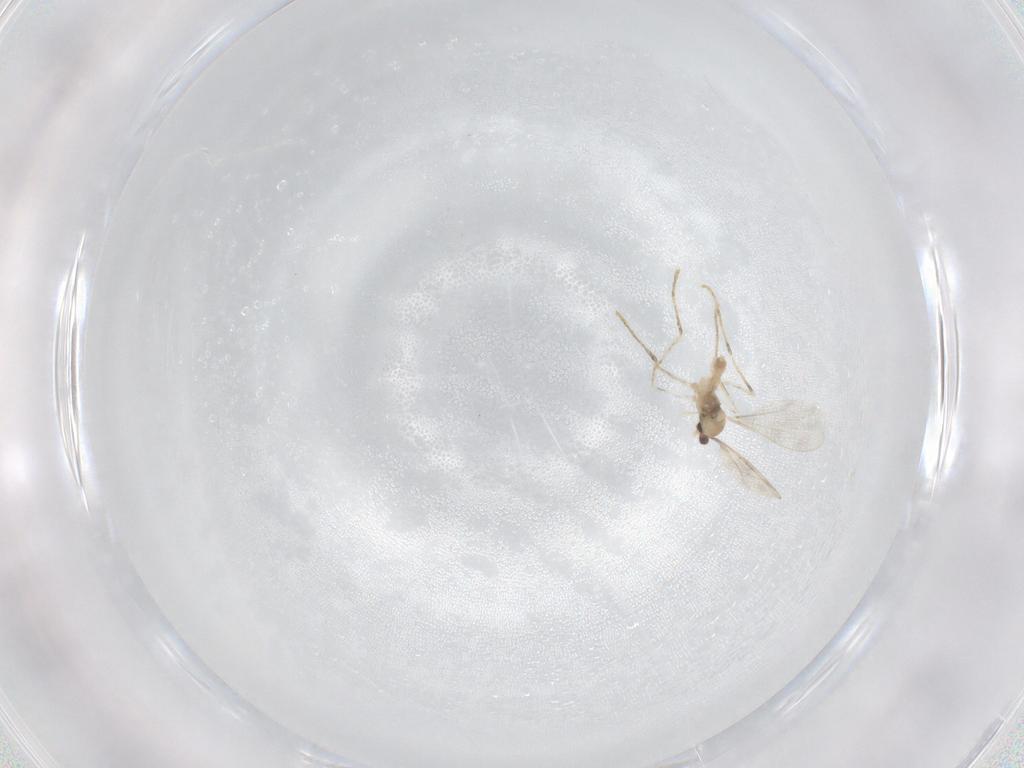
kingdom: Animalia
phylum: Arthropoda
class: Insecta
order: Diptera
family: Cecidomyiidae
